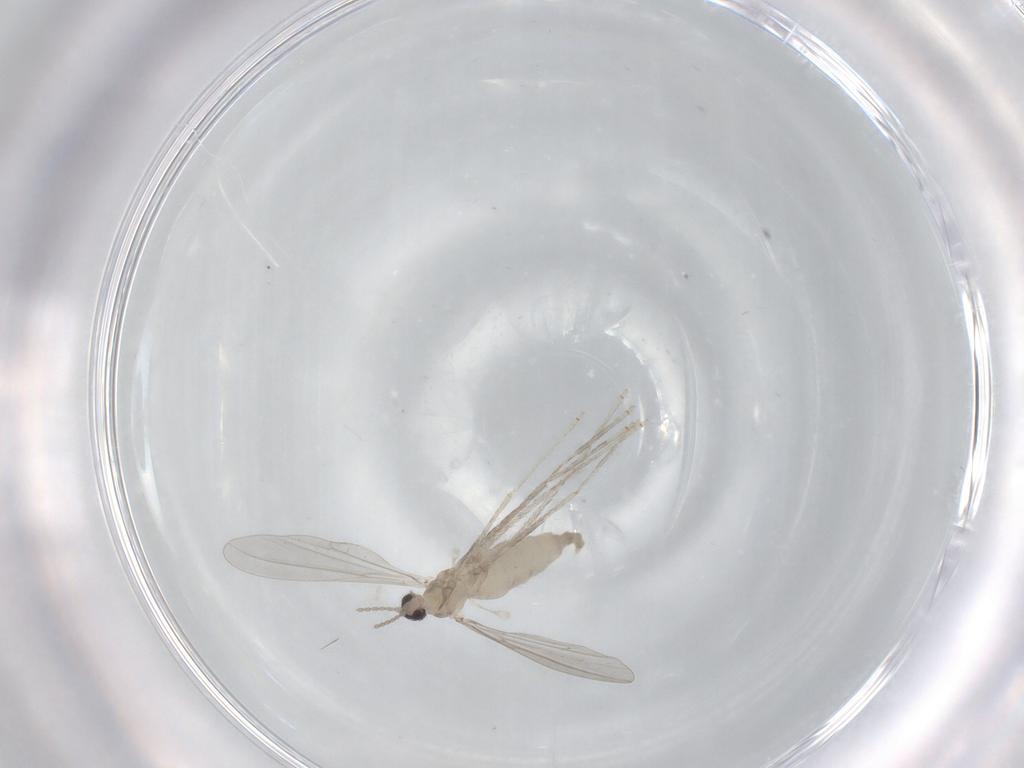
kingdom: Animalia
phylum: Arthropoda
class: Insecta
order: Diptera
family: Cecidomyiidae
